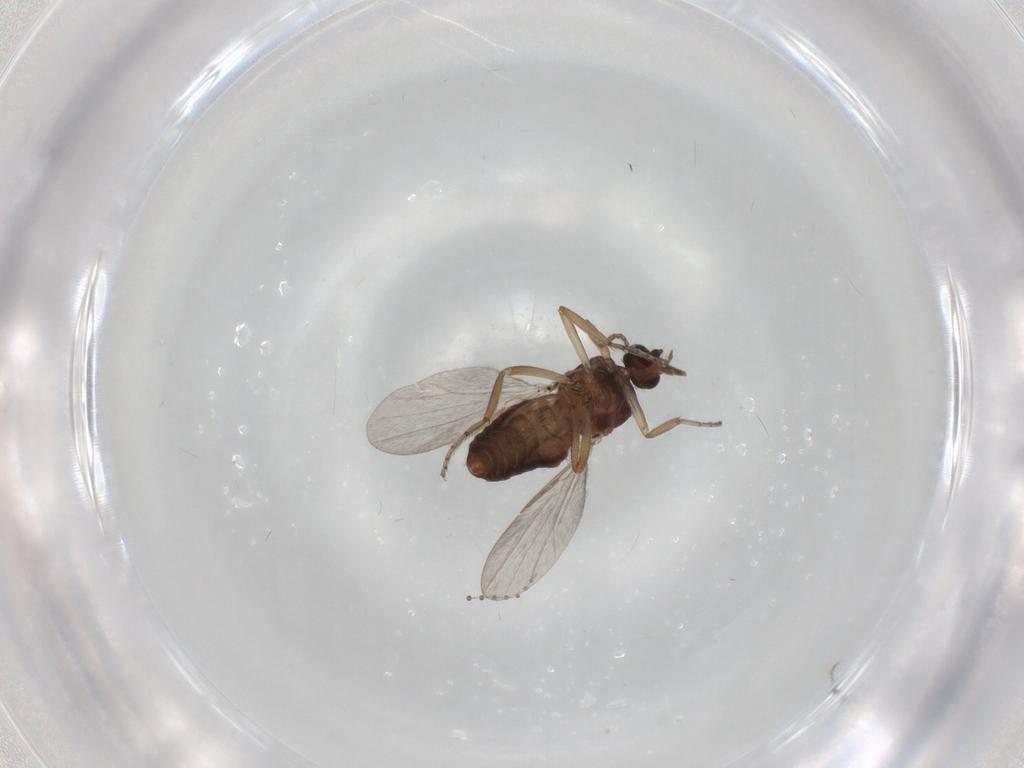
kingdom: Animalia
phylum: Arthropoda
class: Insecta
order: Diptera
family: Ceratopogonidae
